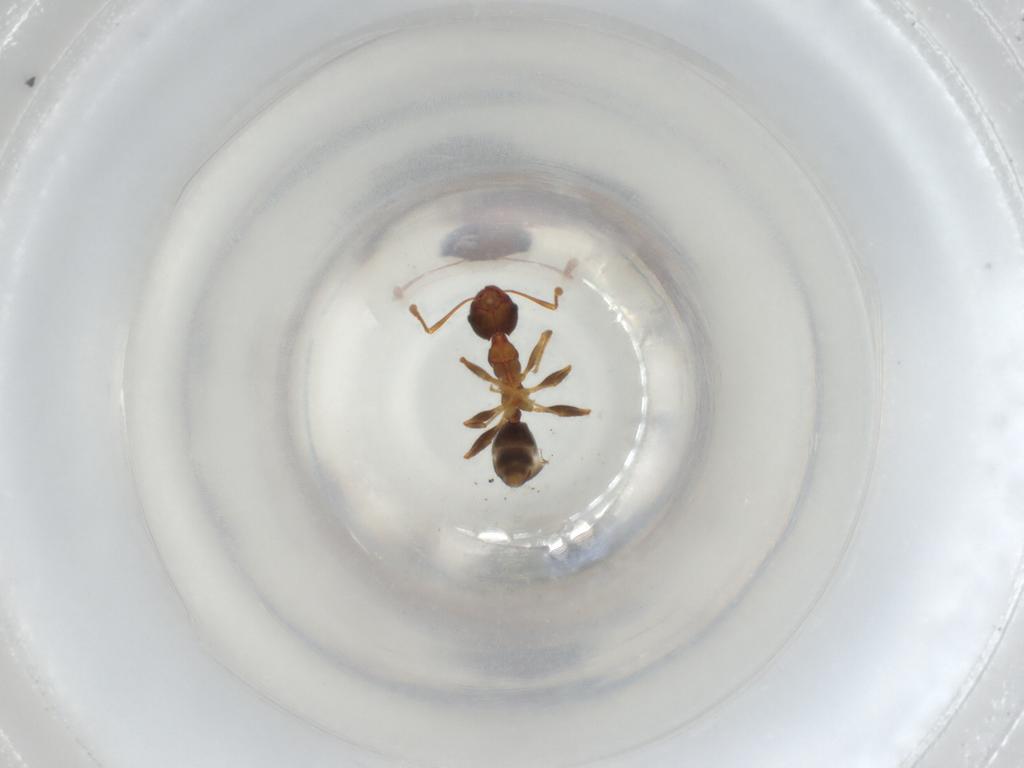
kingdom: Animalia
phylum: Arthropoda
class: Insecta
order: Hymenoptera
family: Formicidae
